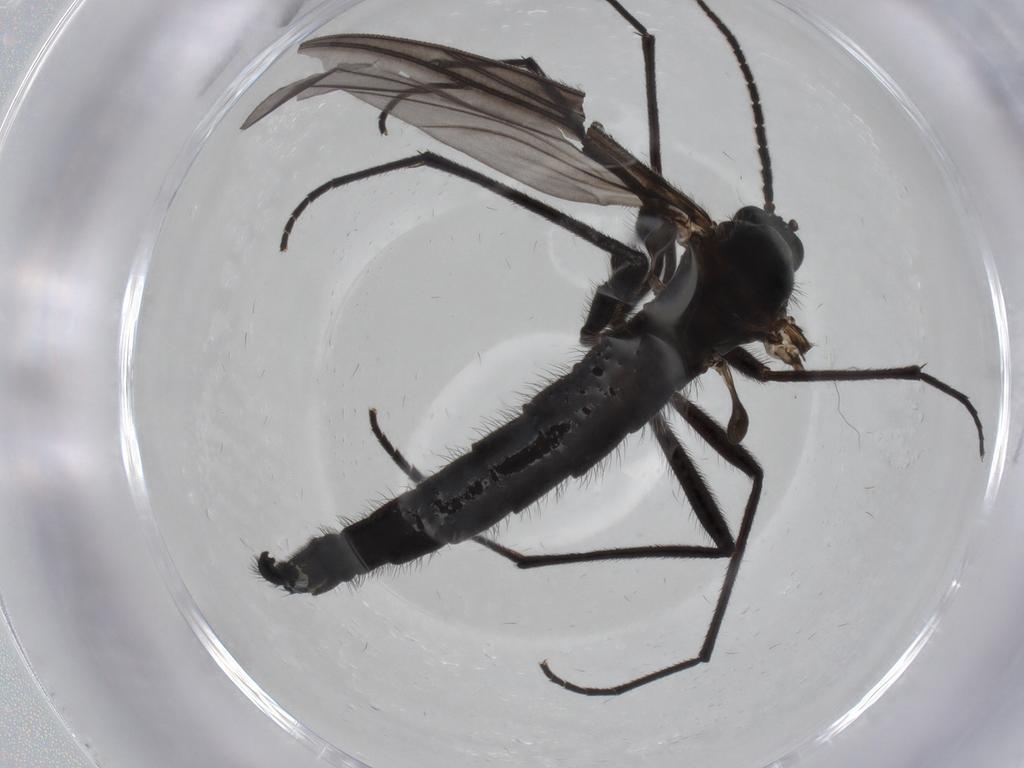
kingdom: Animalia
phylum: Arthropoda
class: Insecta
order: Diptera
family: Sciaridae
